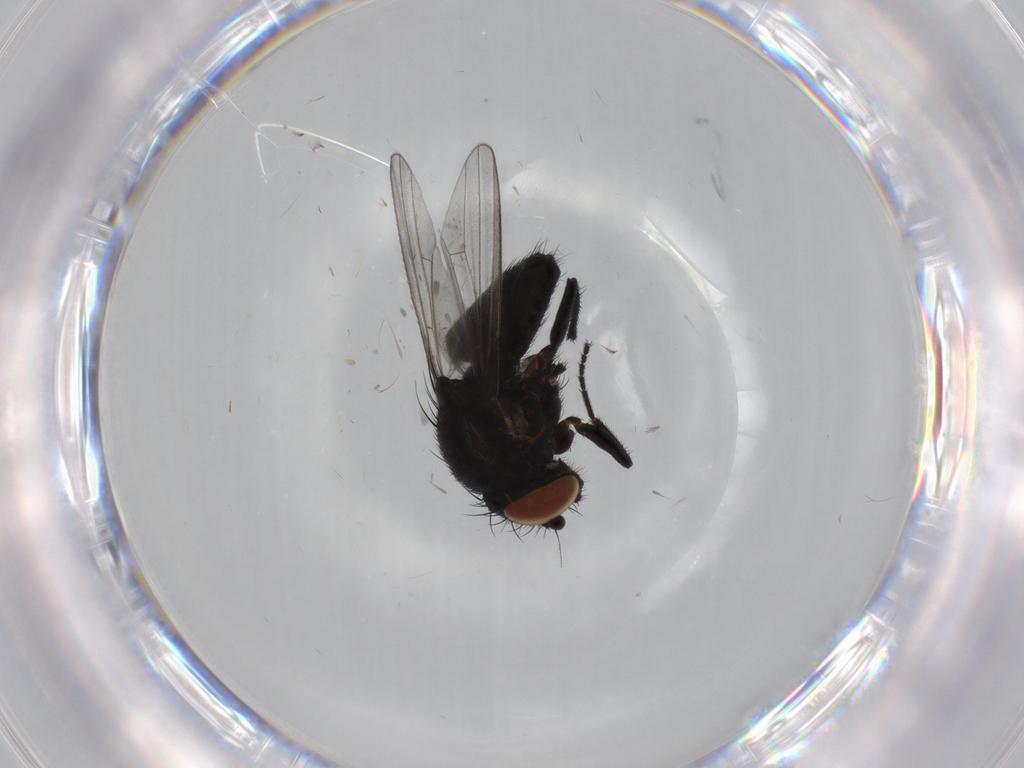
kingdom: Animalia
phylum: Arthropoda
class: Insecta
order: Diptera
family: Milichiidae
